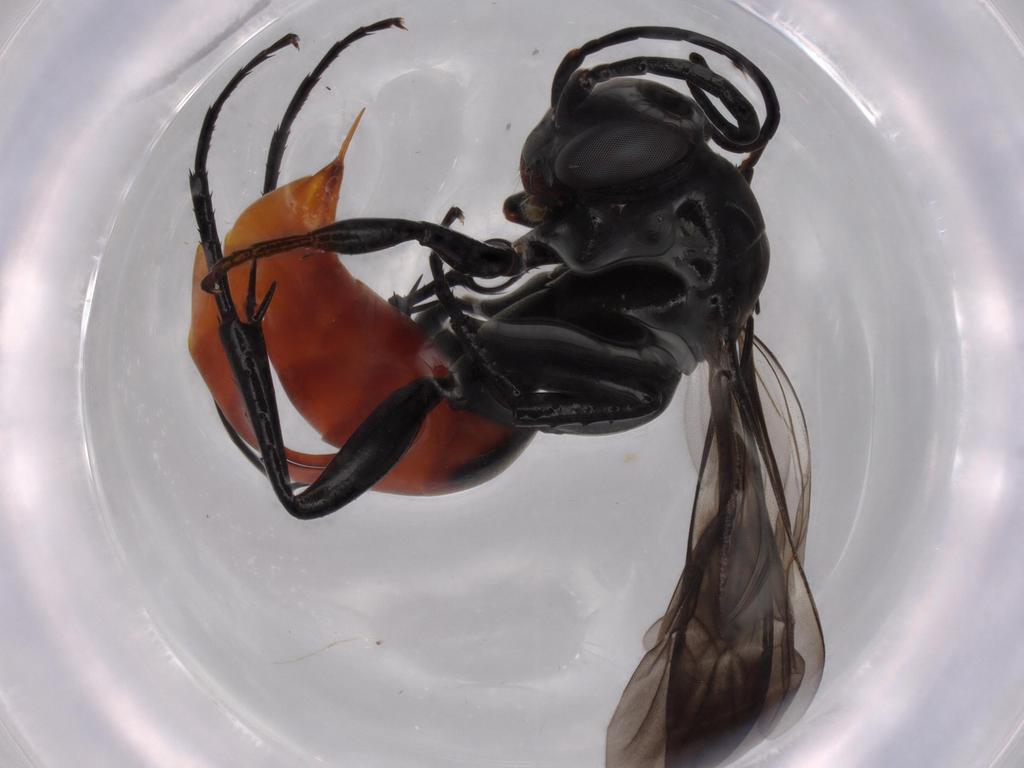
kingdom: Animalia
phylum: Arthropoda
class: Insecta
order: Hymenoptera
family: Pompilidae
